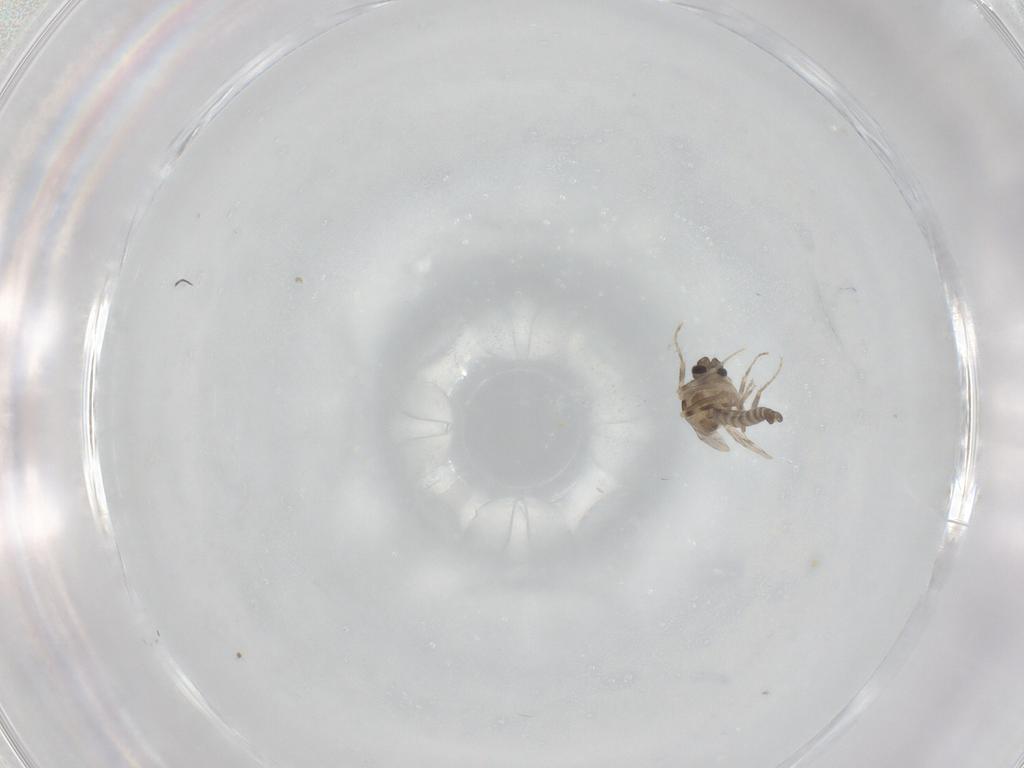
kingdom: Animalia
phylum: Arthropoda
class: Insecta
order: Diptera
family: Ceratopogonidae
